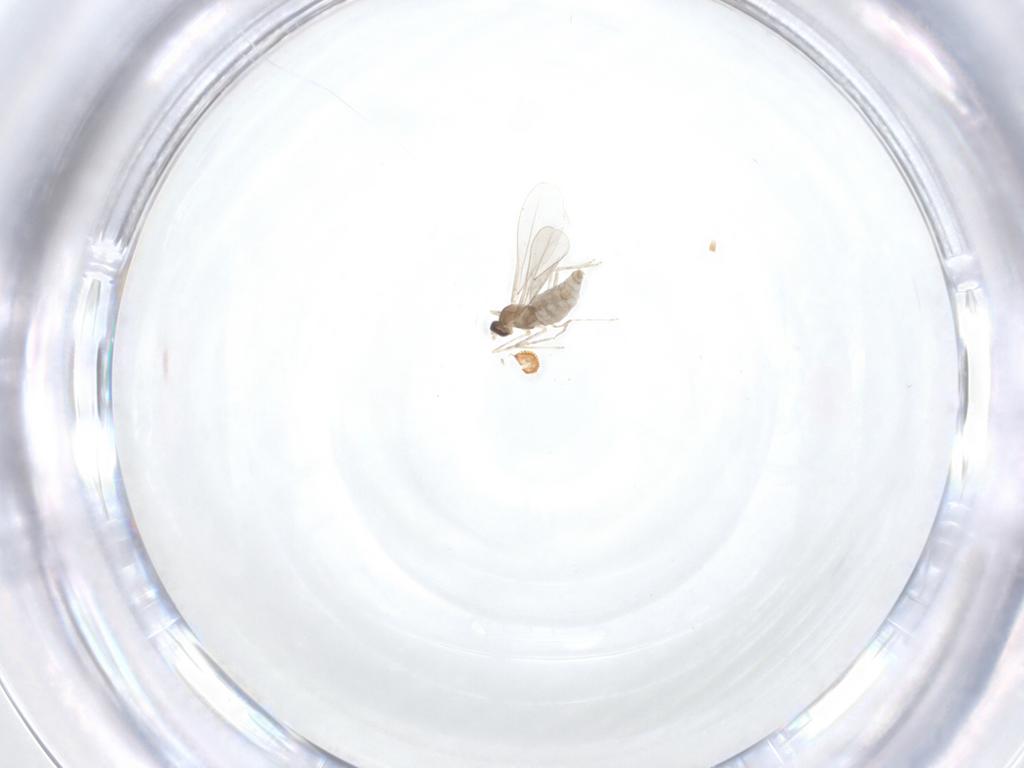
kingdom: Animalia
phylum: Arthropoda
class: Insecta
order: Diptera
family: Cecidomyiidae
